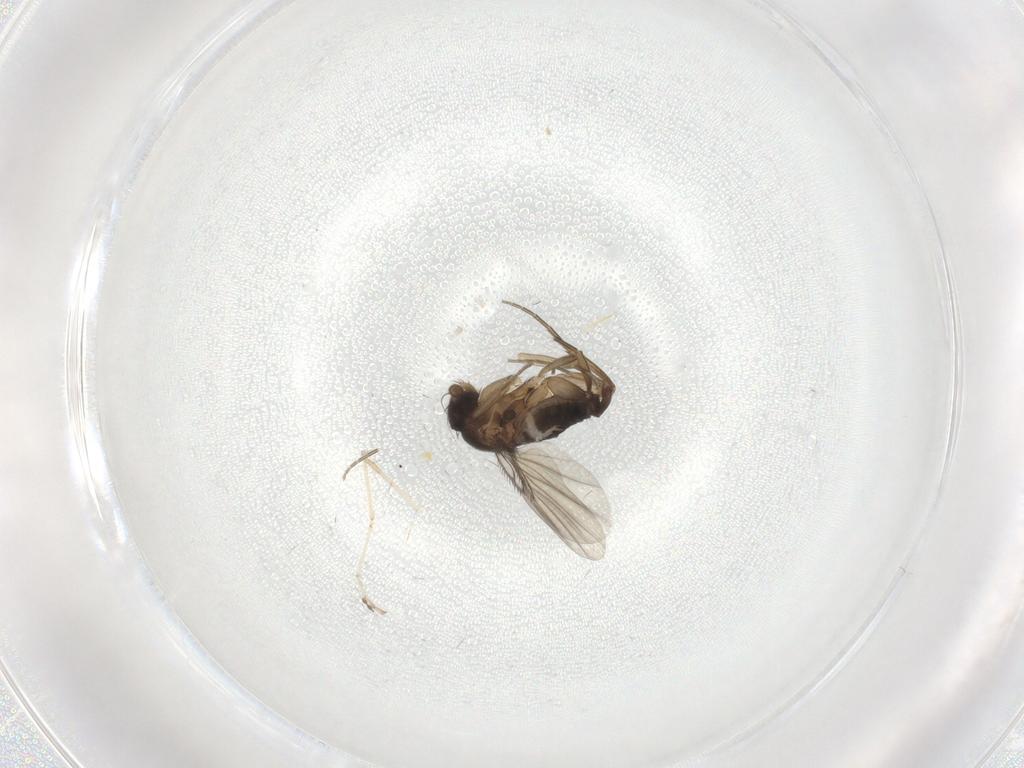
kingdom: Animalia
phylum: Arthropoda
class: Insecta
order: Diptera
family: Phoridae
